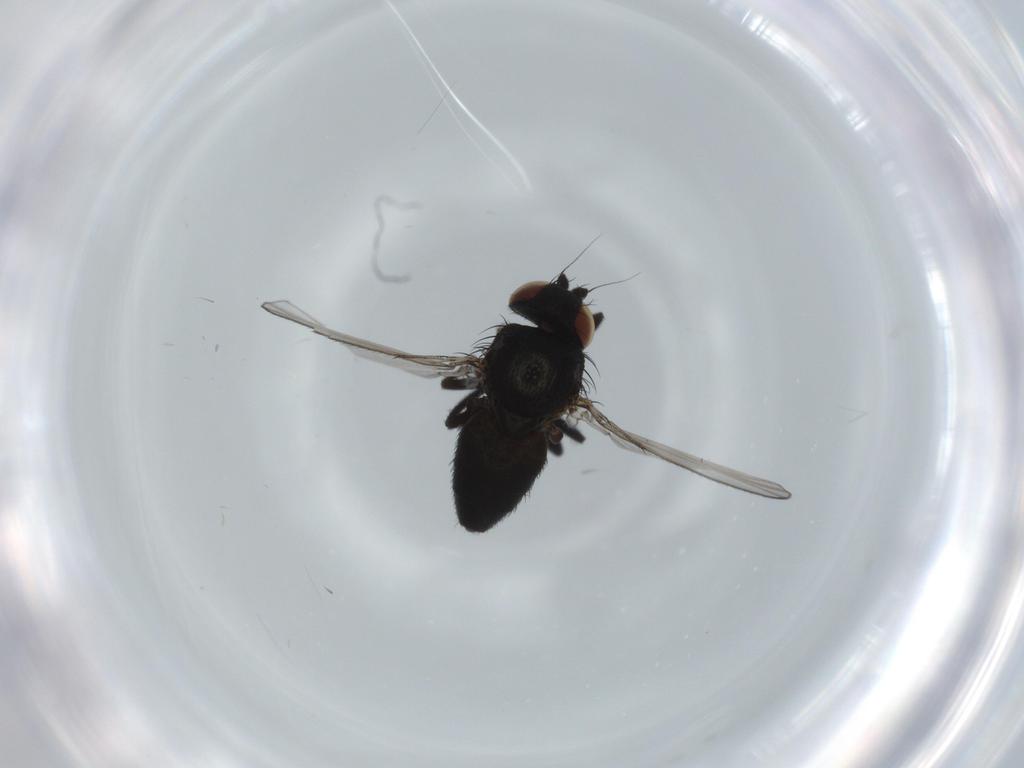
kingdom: Animalia
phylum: Arthropoda
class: Insecta
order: Diptera
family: Milichiidae
